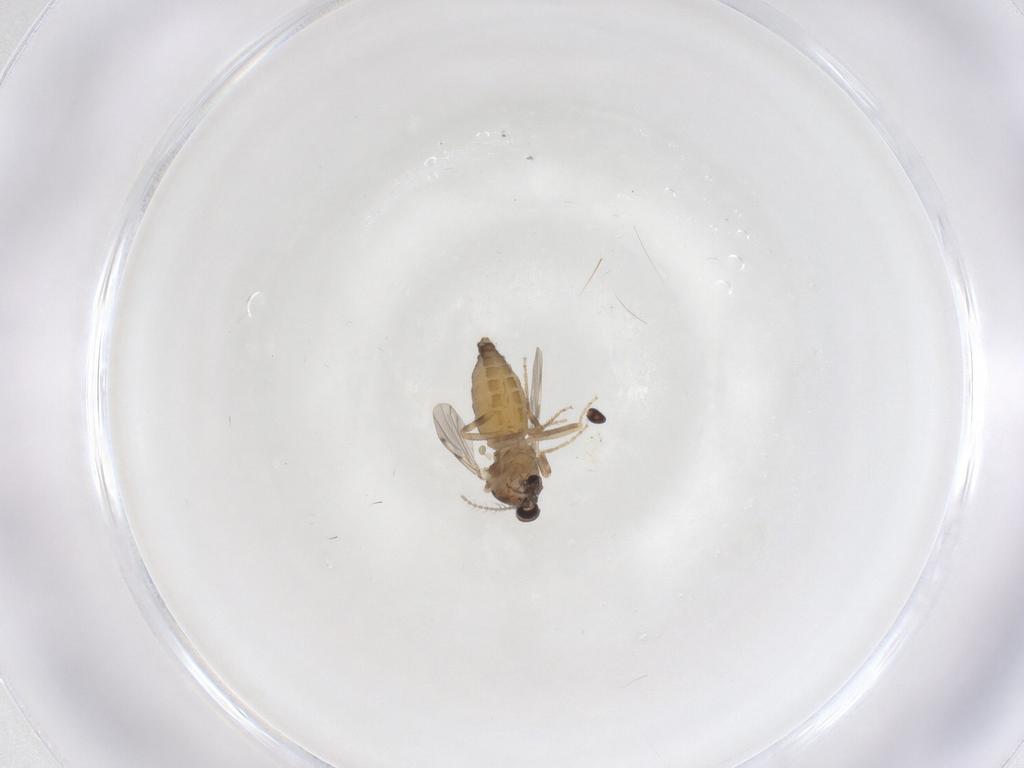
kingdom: Animalia
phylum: Arthropoda
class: Insecta
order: Diptera
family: Ceratopogonidae
